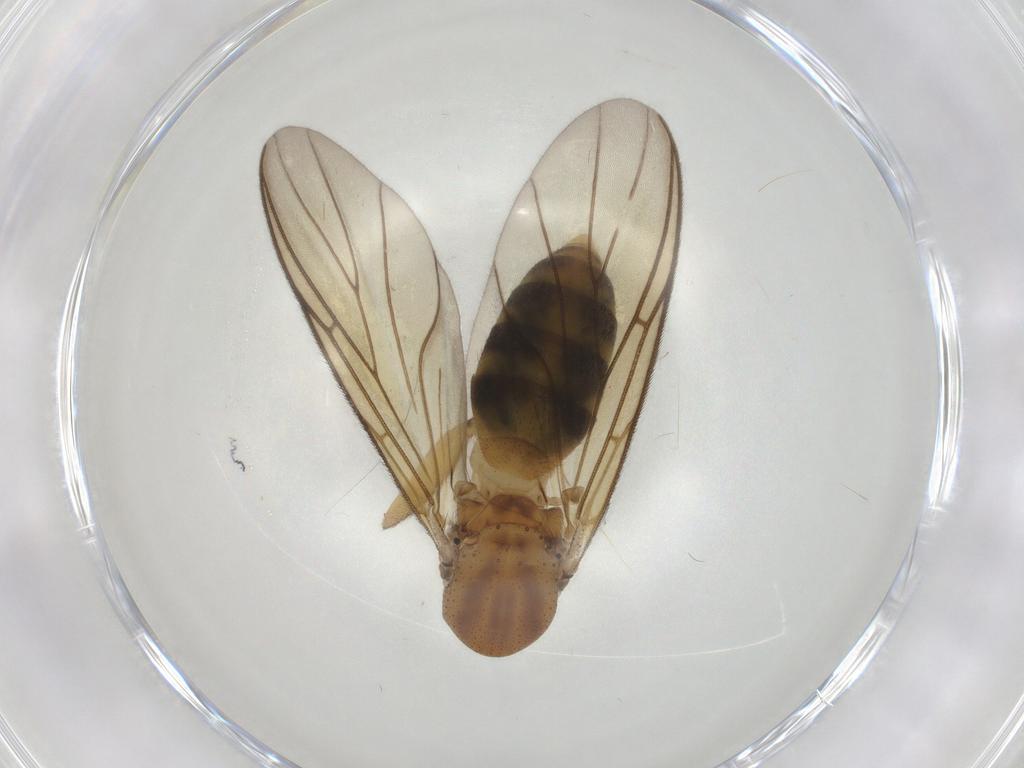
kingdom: Animalia
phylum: Arthropoda
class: Insecta
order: Diptera
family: Mycetophilidae
